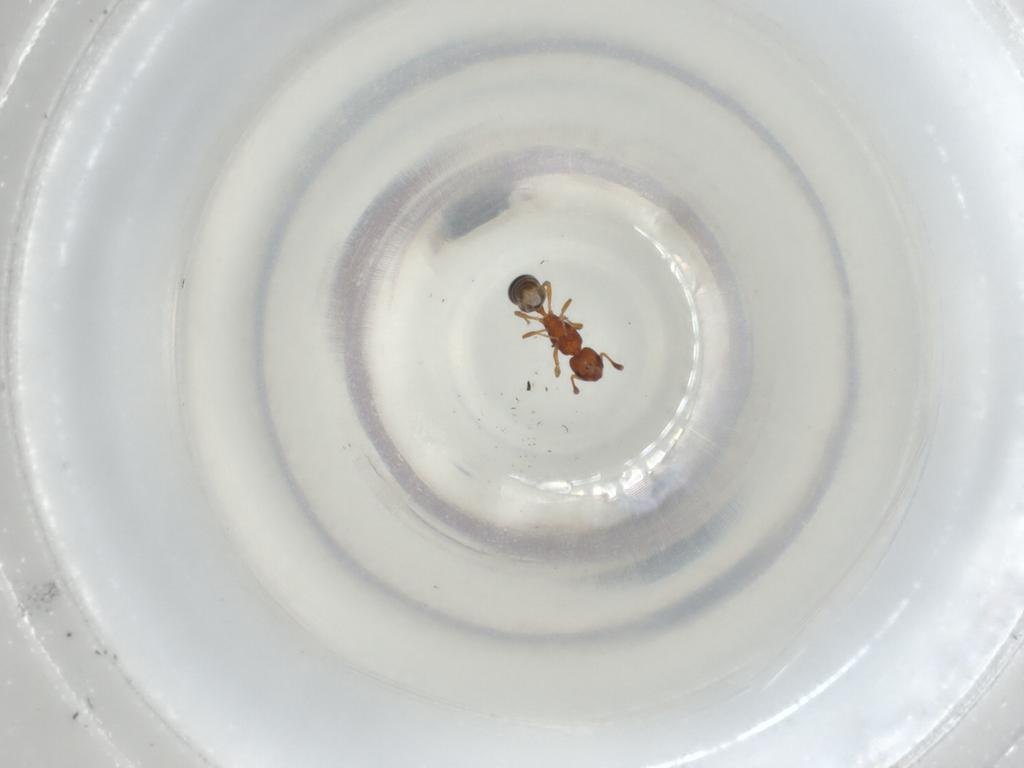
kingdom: Animalia
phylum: Arthropoda
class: Insecta
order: Hymenoptera
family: Formicidae
